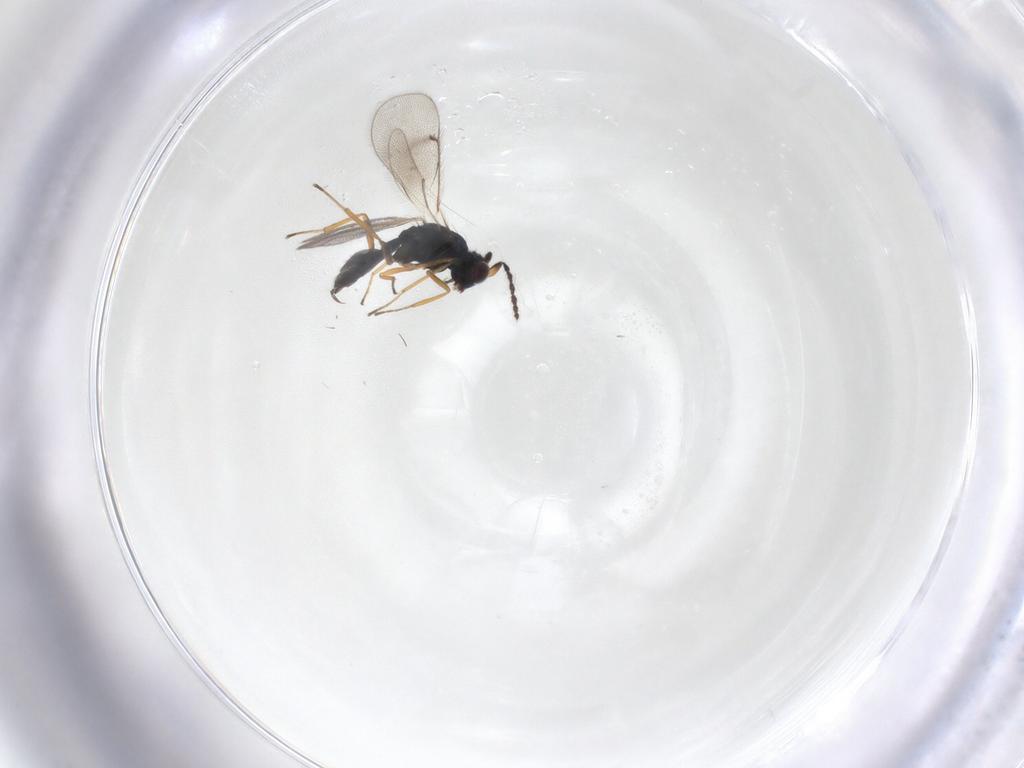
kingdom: Animalia
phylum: Arthropoda
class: Insecta
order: Hymenoptera
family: Eulophidae
